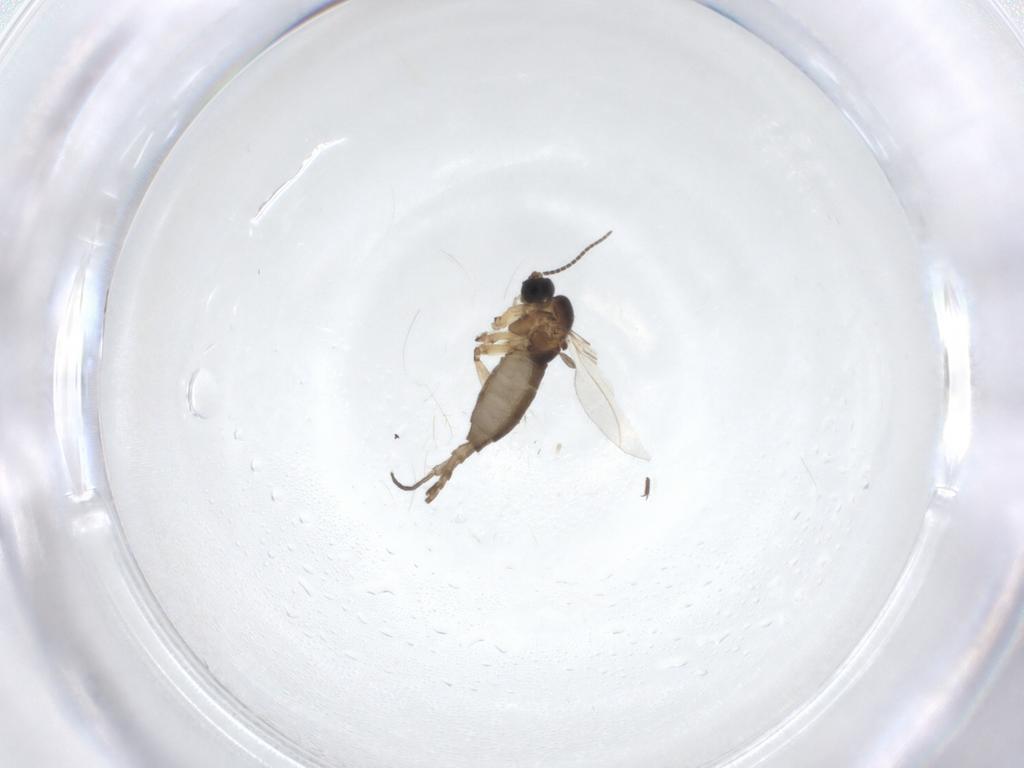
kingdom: Animalia
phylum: Arthropoda
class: Insecta
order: Diptera
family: Sciaridae
